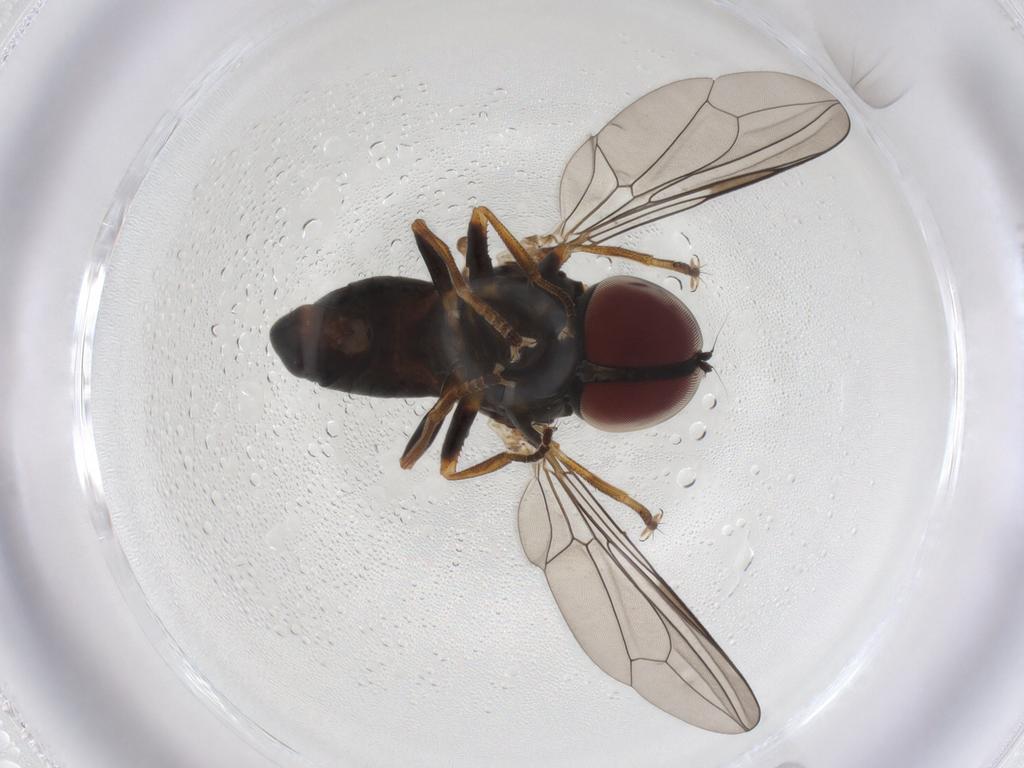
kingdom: Animalia
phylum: Arthropoda
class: Insecta
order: Diptera
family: Pipunculidae
